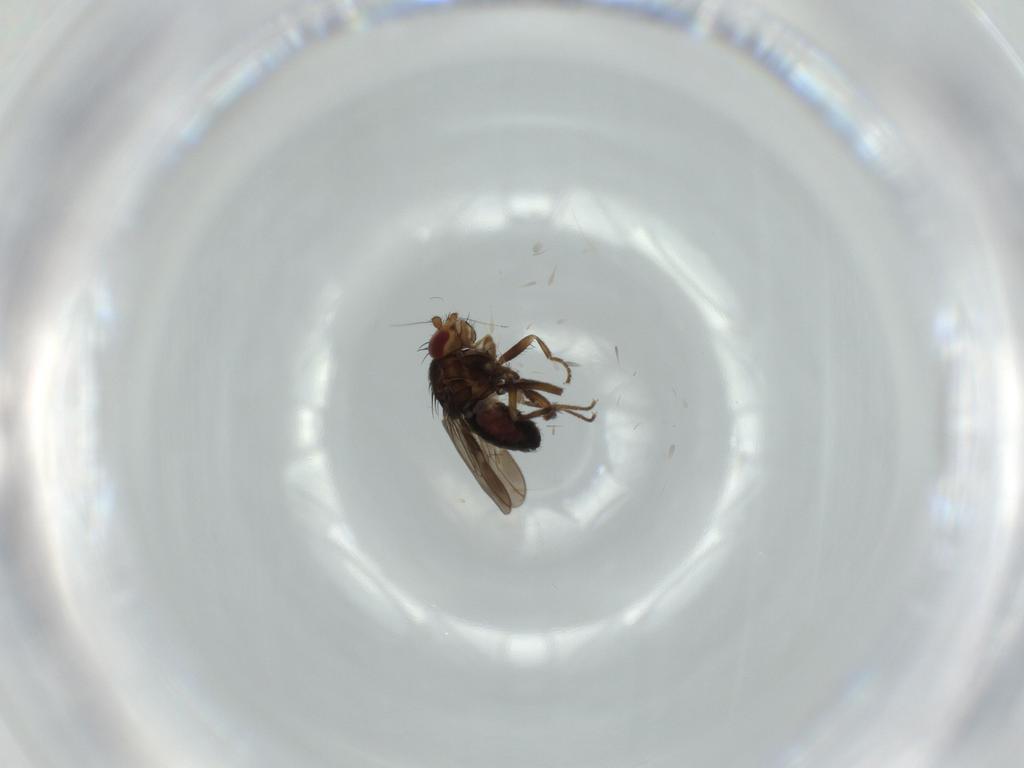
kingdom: Animalia
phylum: Arthropoda
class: Insecta
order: Diptera
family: Sphaeroceridae
